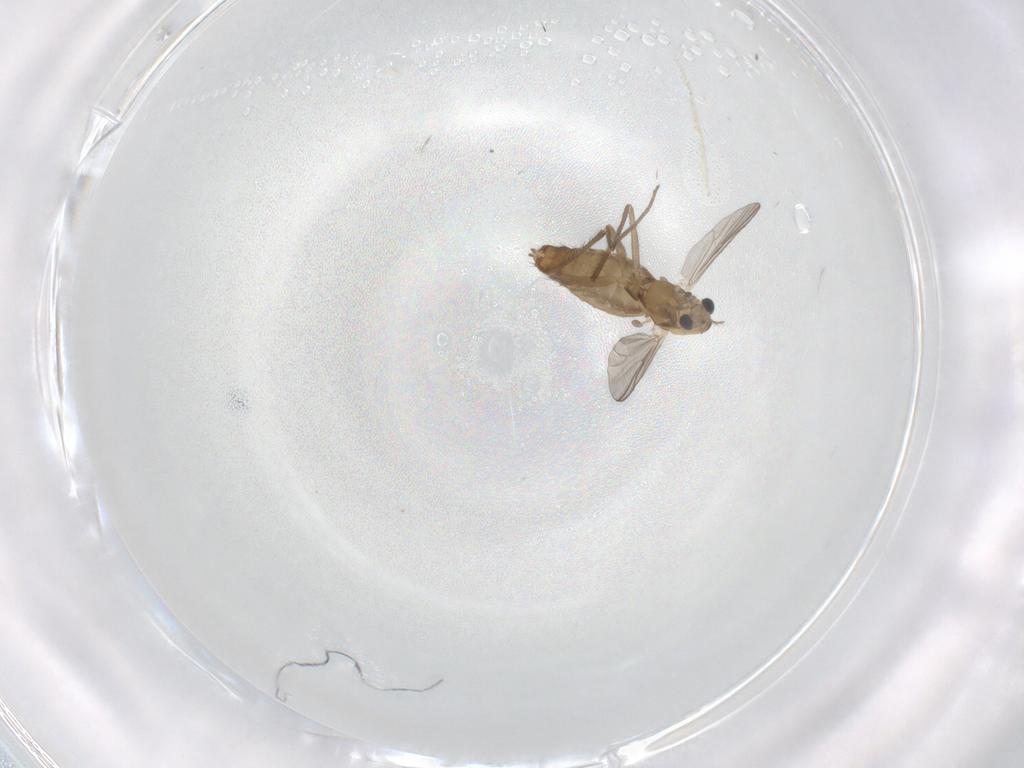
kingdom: Animalia
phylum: Arthropoda
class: Insecta
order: Diptera
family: Chironomidae
